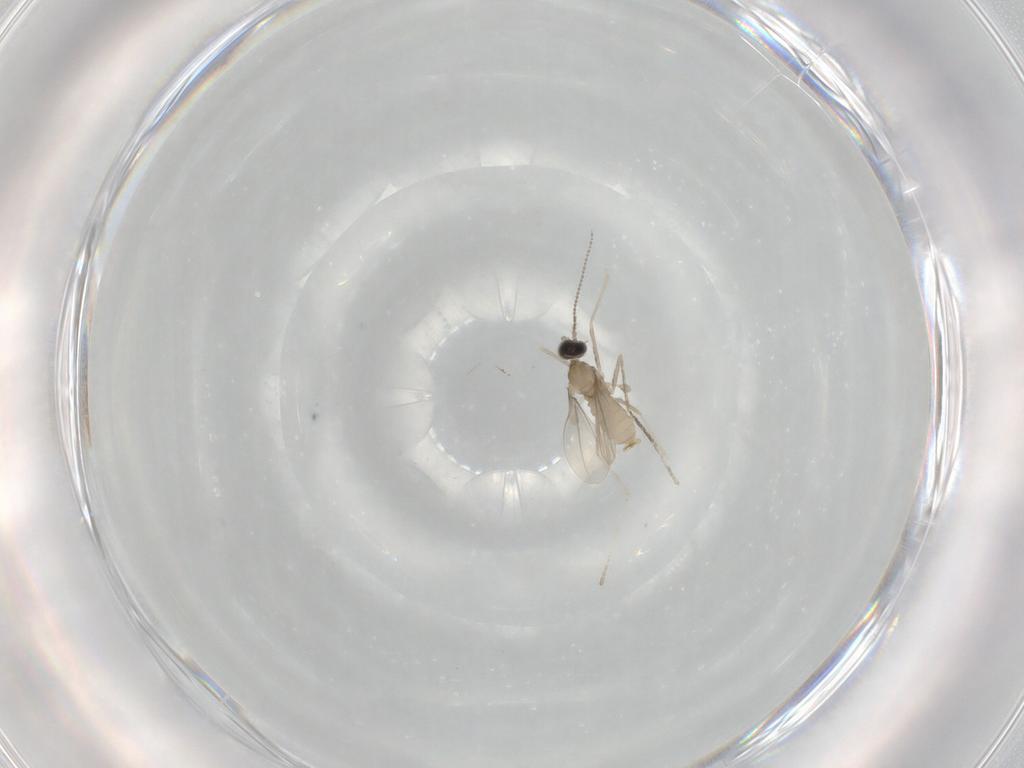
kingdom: Animalia
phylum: Arthropoda
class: Insecta
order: Diptera
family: Cecidomyiidae
